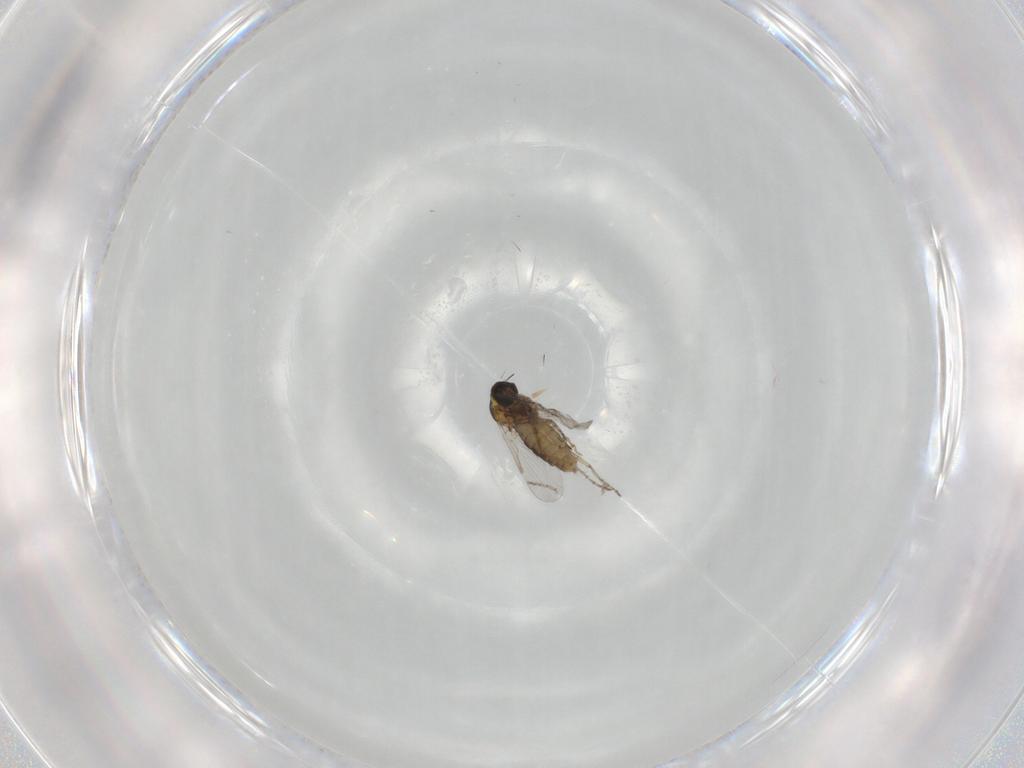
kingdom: Animalia
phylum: Arthropoda
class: Insecta
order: Diptera
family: Ceratopogonidae
